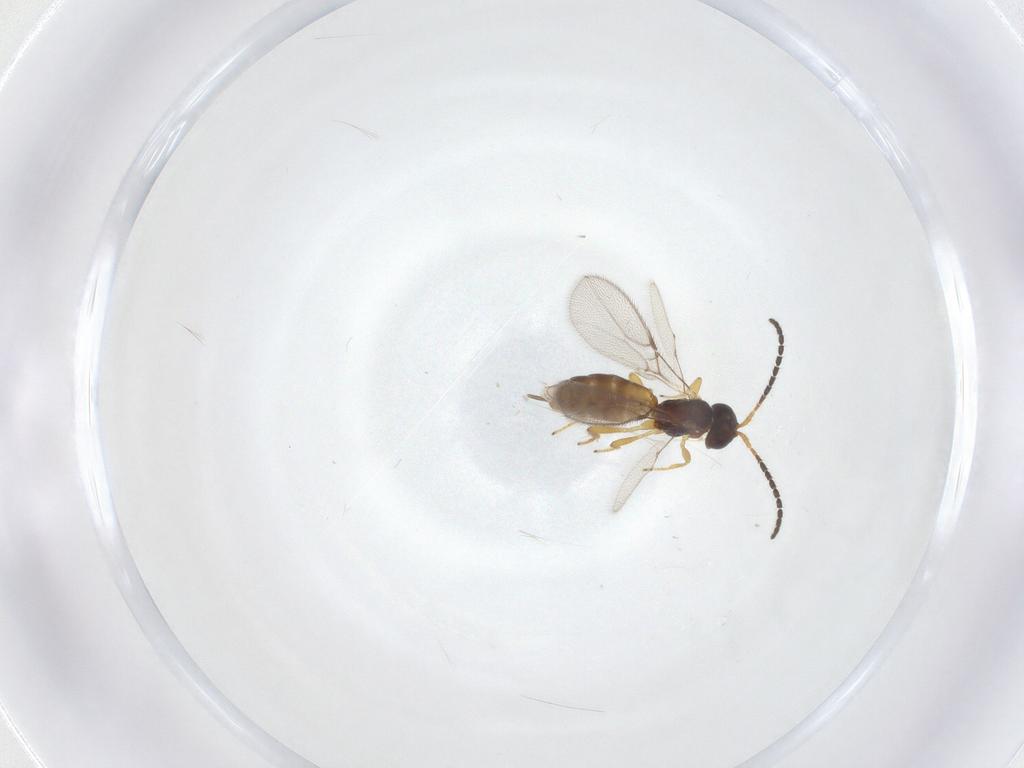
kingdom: Animalia
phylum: Arthropoda
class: Insecta
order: Hymenoptera
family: Braconidae
